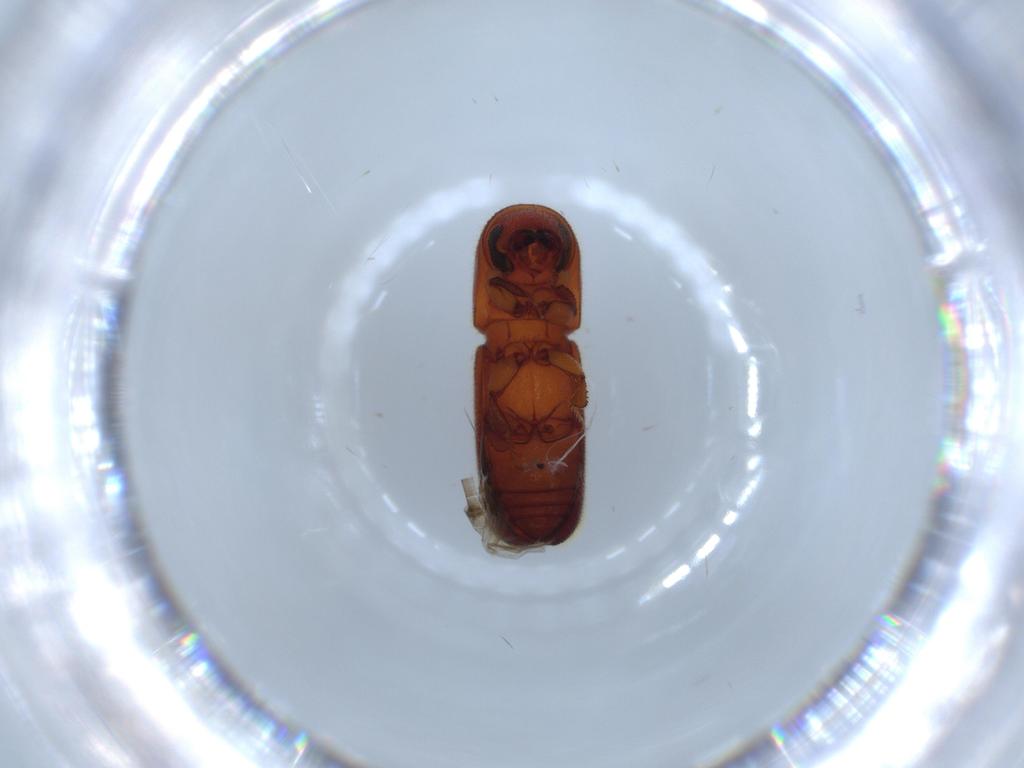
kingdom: Animalia
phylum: Arthropoda
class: Insecta
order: Coleoptera
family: Curculionidae
